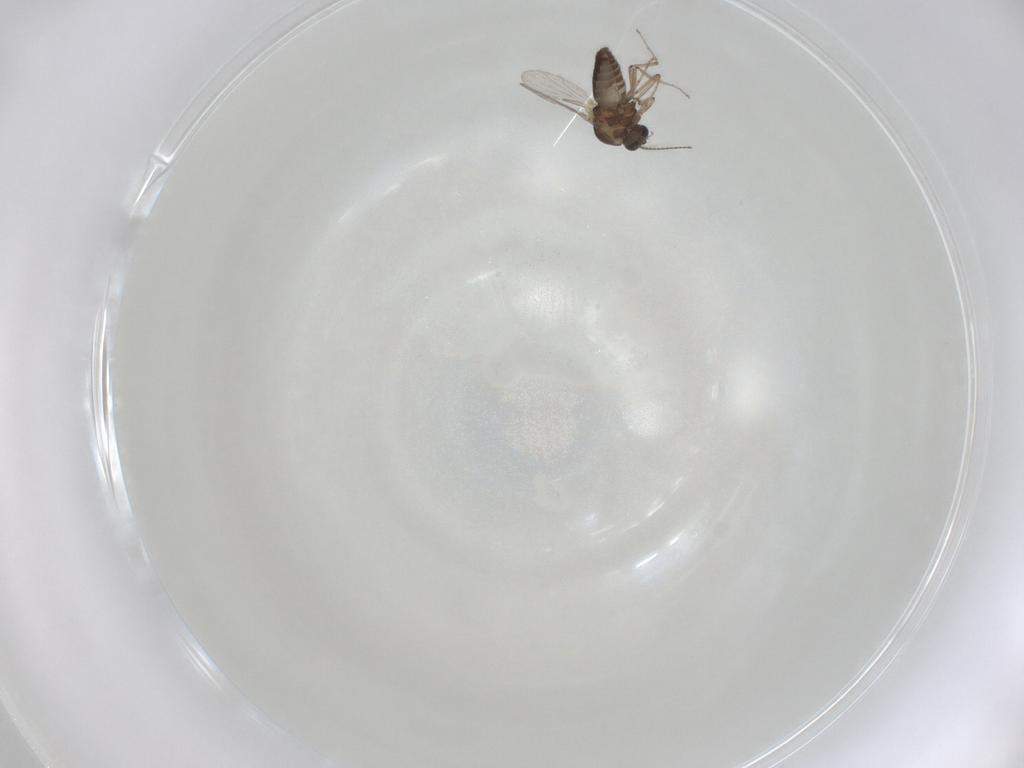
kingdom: Animalia
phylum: Arthropoda
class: Insecta
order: Diptera
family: Ceratopogonidae
